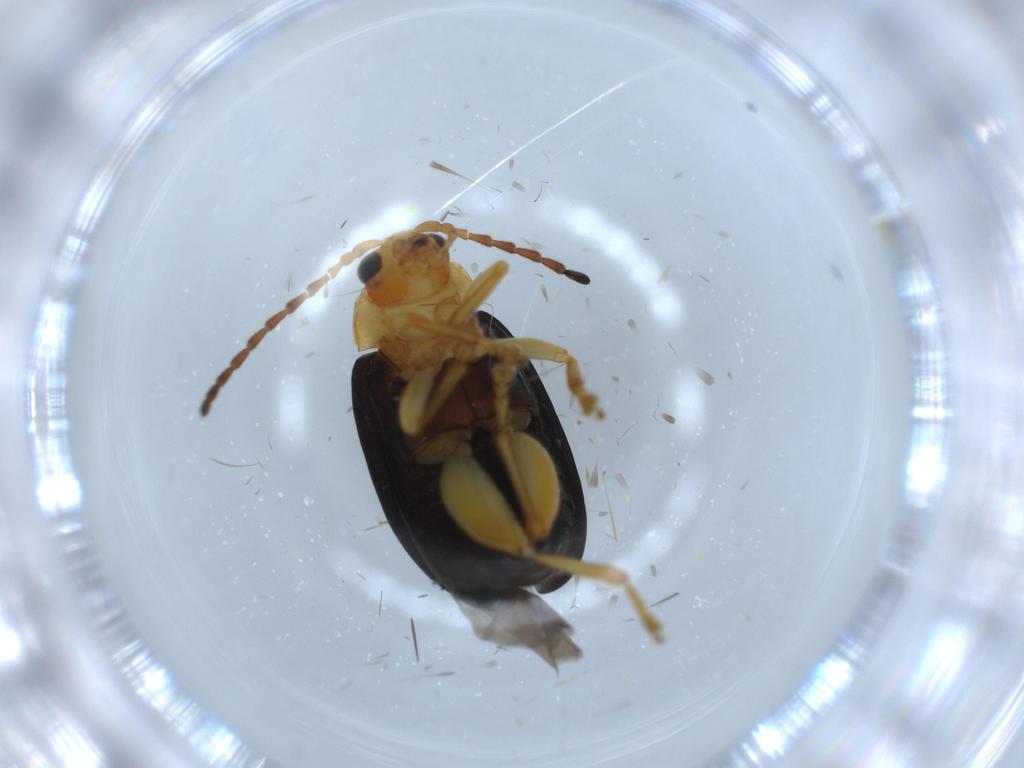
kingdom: Animalia
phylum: Arthropoda
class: Insecta
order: Coleoptera
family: Chrysomelidae
